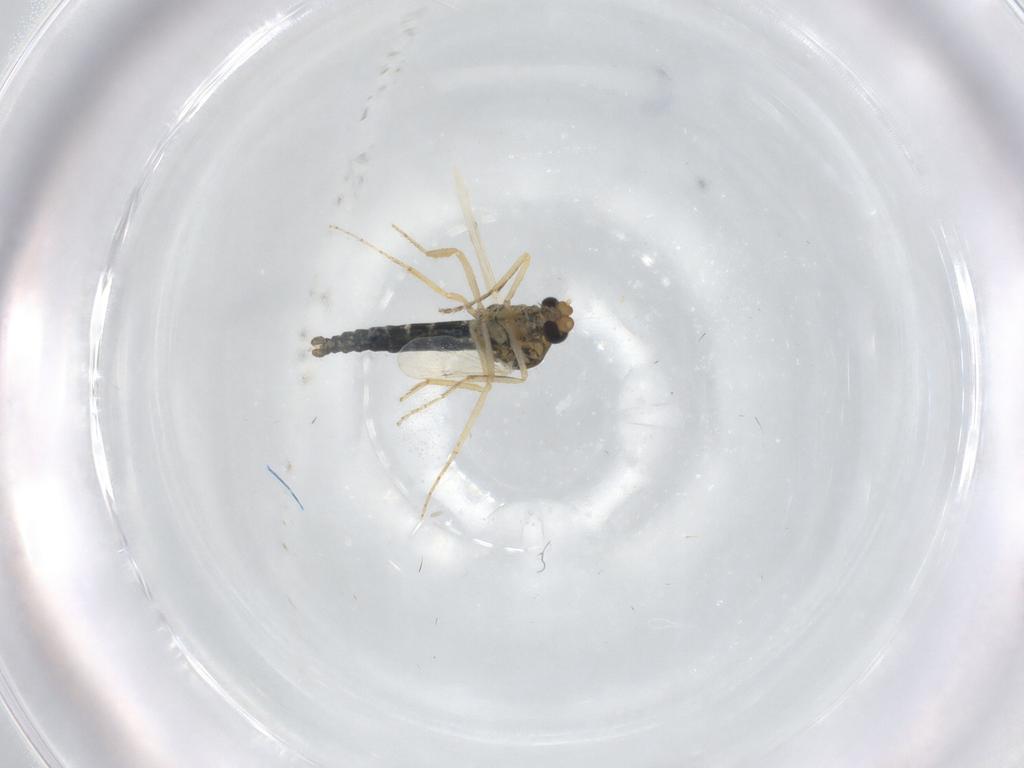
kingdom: Animalia
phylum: Arthropoda
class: Insecta
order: Diptera
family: Ceratopogonidae
